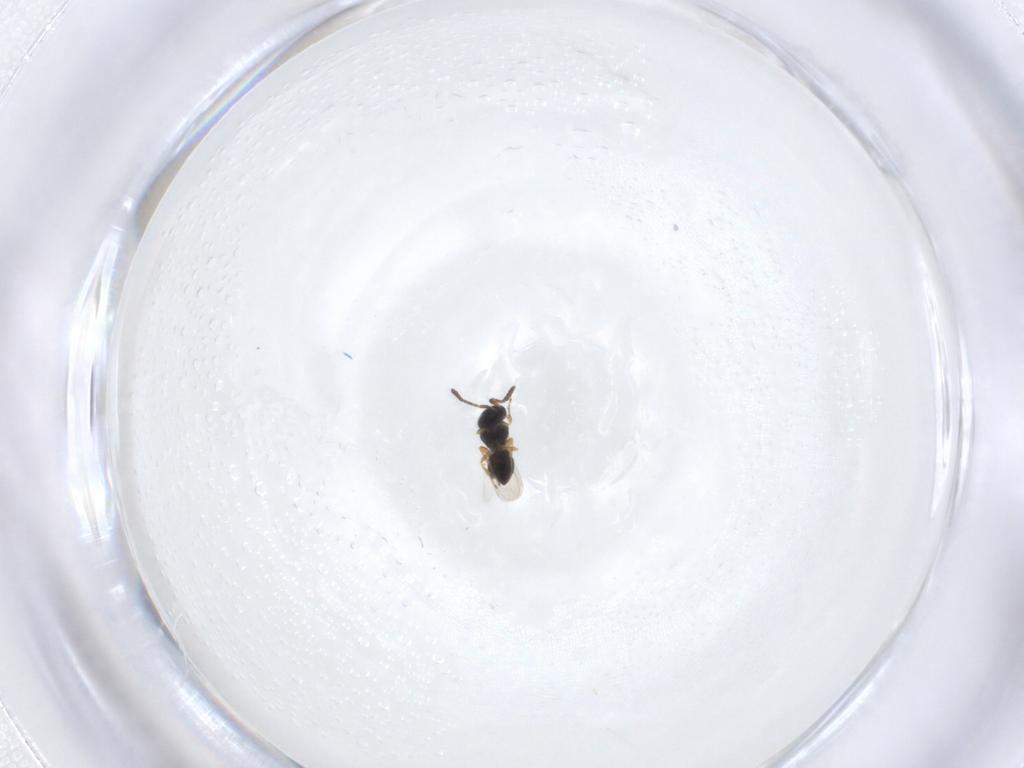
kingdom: Animalia
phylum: Arthropoda
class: Insecta
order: Hymenoptera
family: Scelionidae
